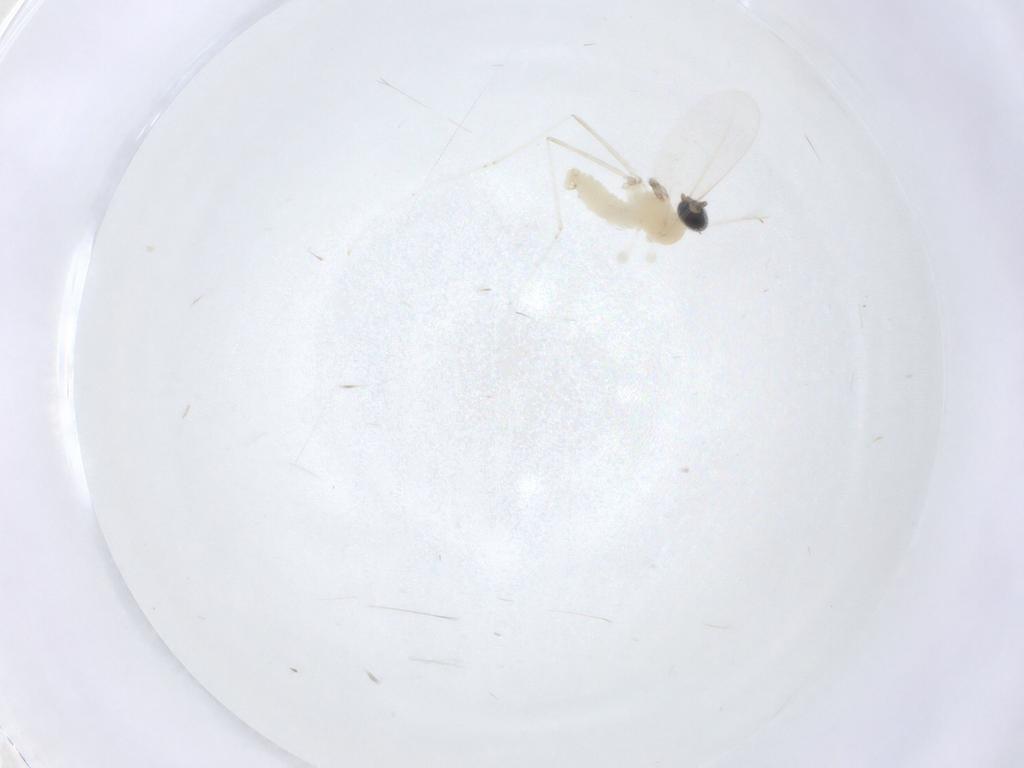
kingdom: Animalia
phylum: Arthropoda
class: Insecta
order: Diptera
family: Cecidomyiidae
